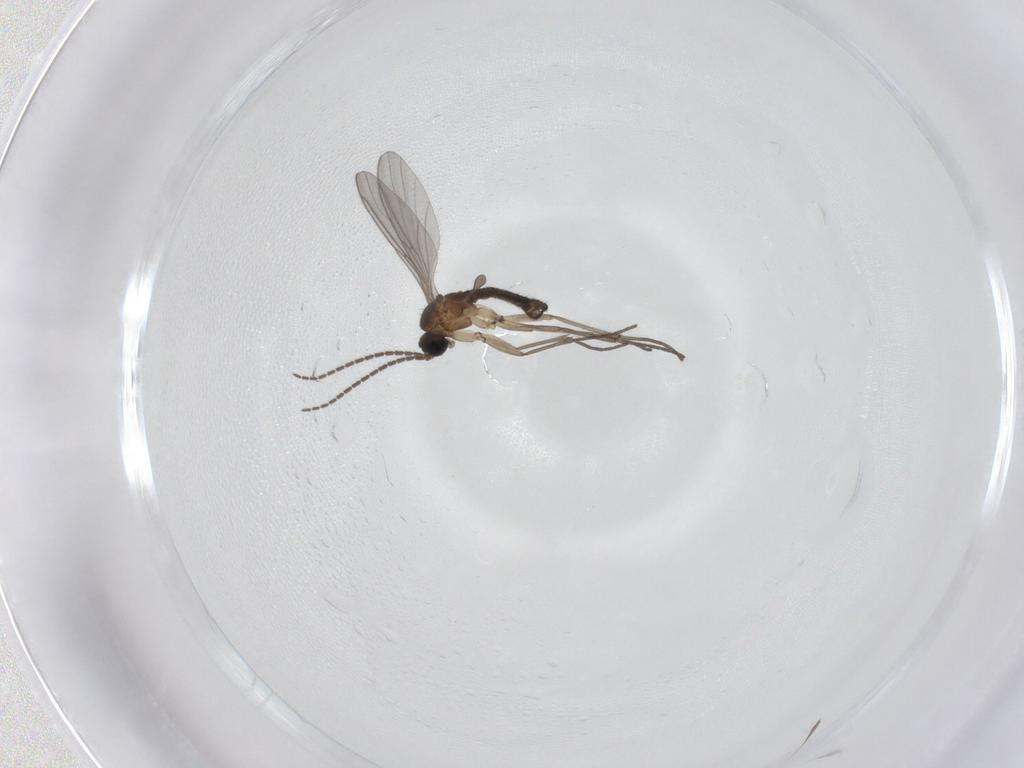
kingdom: Animalia
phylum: Arthropoda
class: Insecta
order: Diptera
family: Sciaridae
